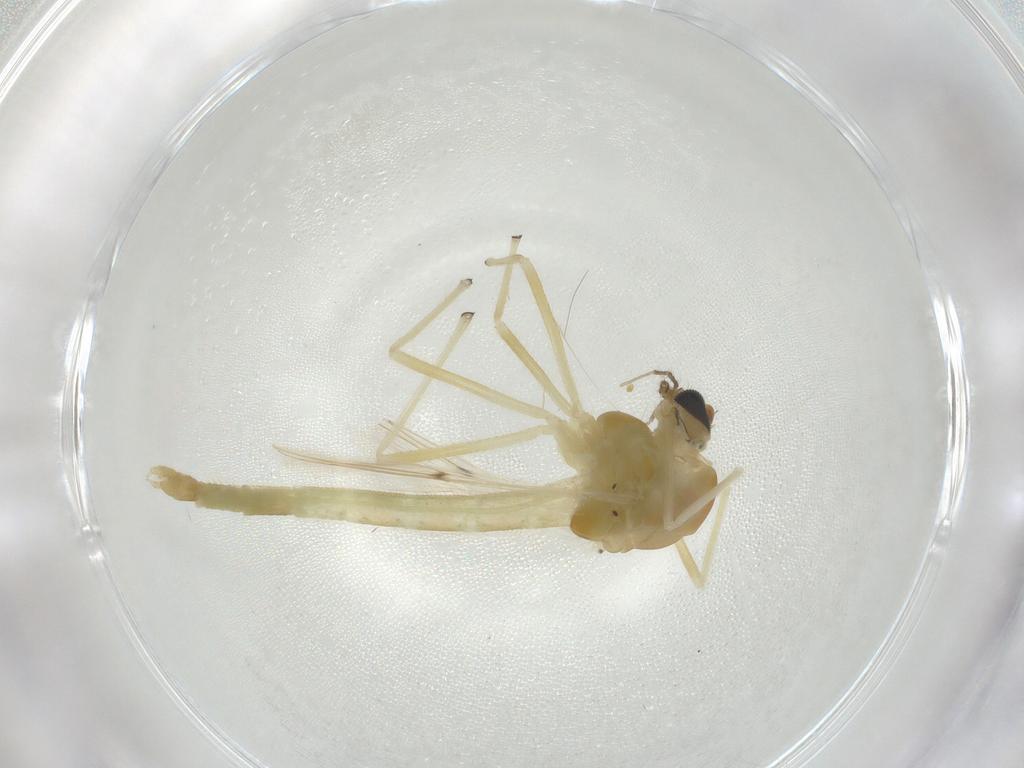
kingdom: Animalia
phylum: Arthropoda
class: Insecta
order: Diptera
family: Chironomidae
